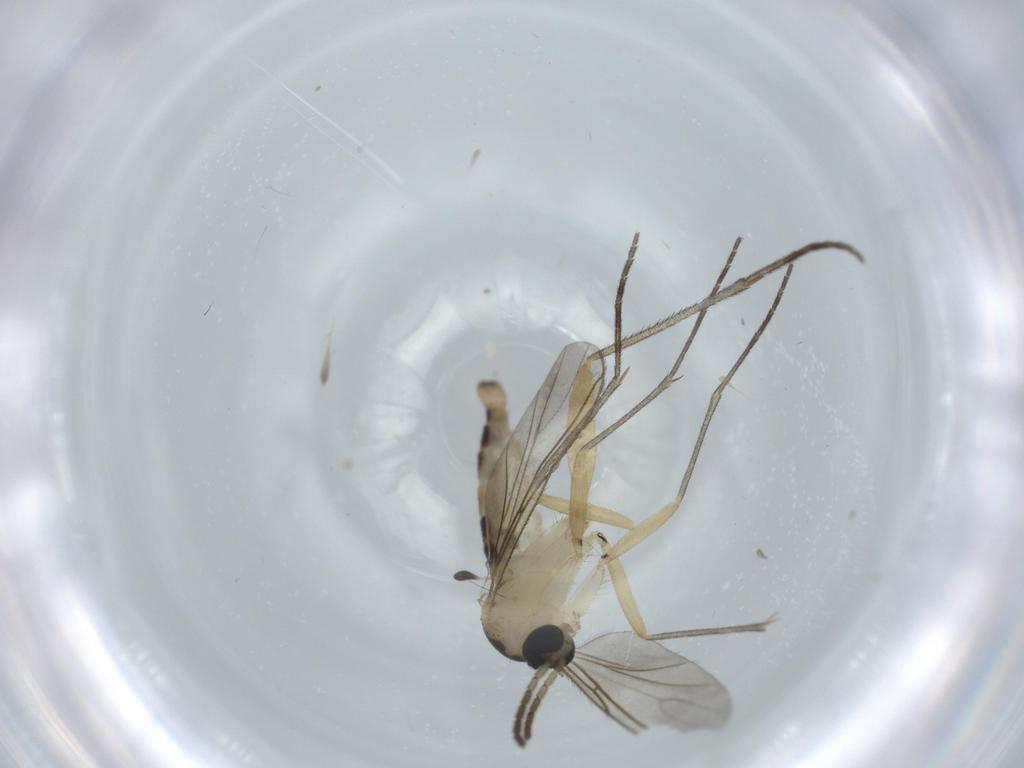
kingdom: Animalia
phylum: Arthropoda
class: Insecta
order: Diptera
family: Sciaridae
